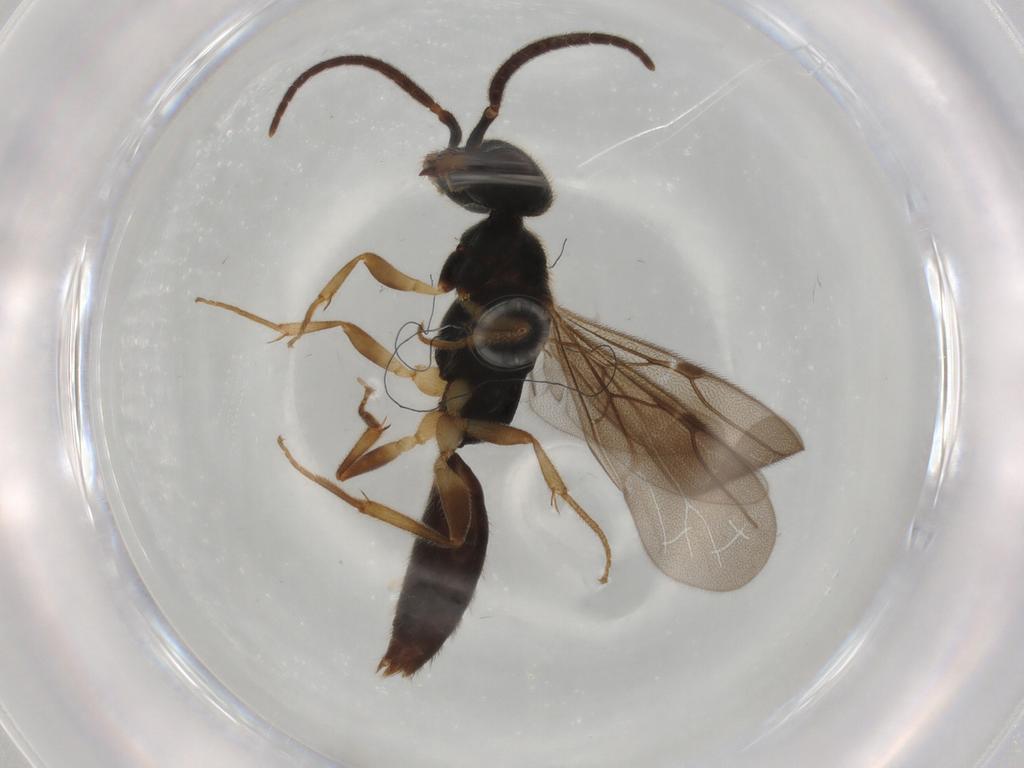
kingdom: Animalia
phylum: Arthropoda
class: Insecta
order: Hymenoptera
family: Bethylidae
